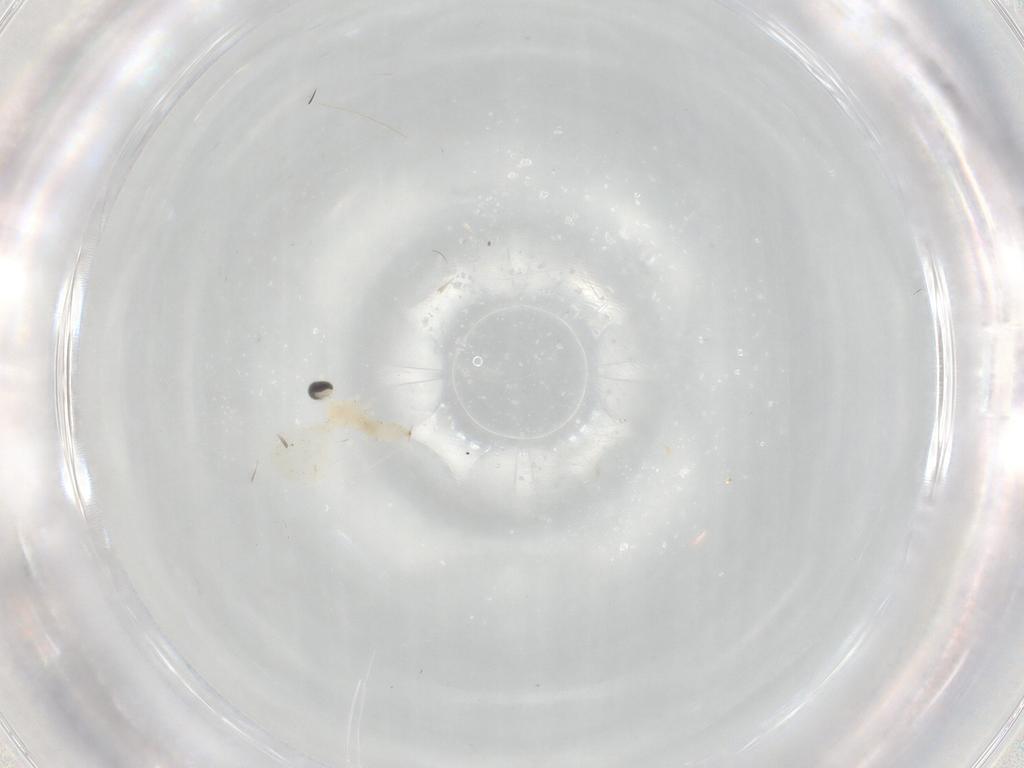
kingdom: Animalia
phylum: Arthropoda
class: Insecta
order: Diptera
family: Cecidomyiidae
